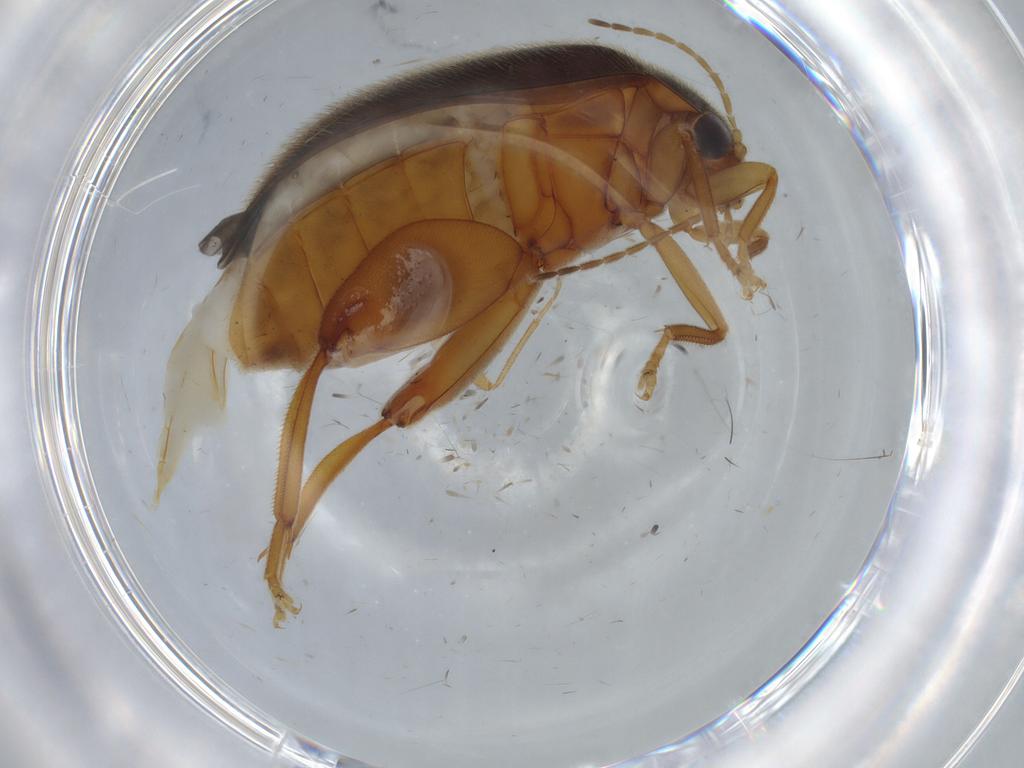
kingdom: Animalia
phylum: Arthropoda
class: Insecta
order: Coleoptera
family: Scirtidae
